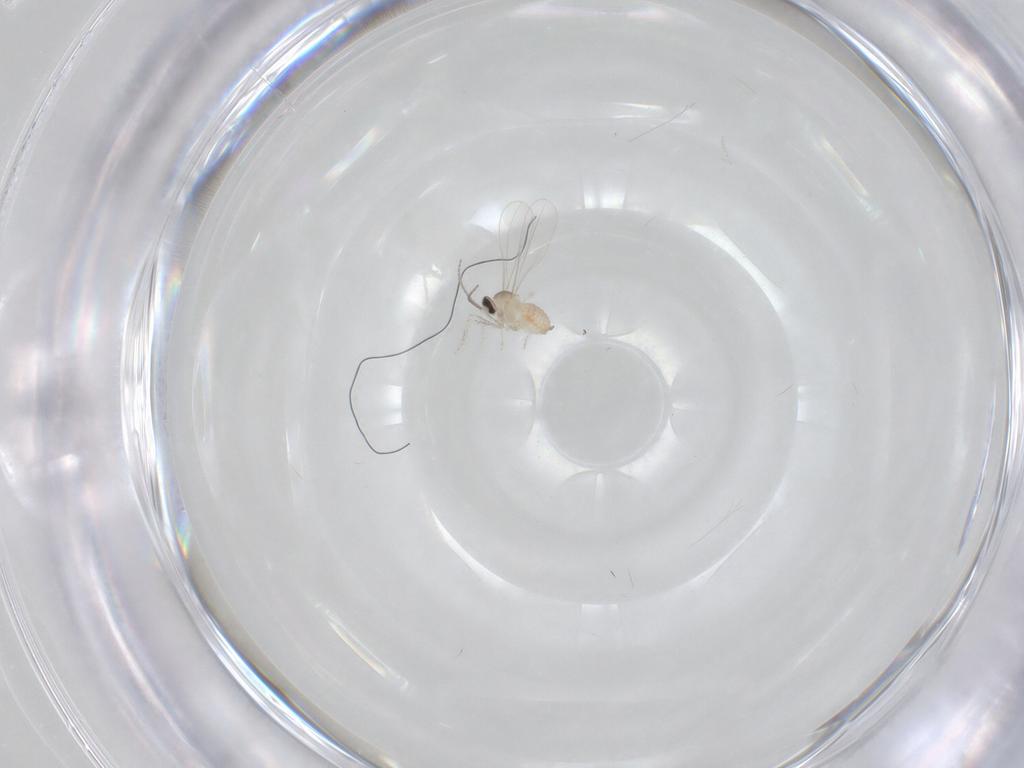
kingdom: Animalia
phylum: Arthropoda
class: Insecta
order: Diptera
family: Cecidomyiidae
